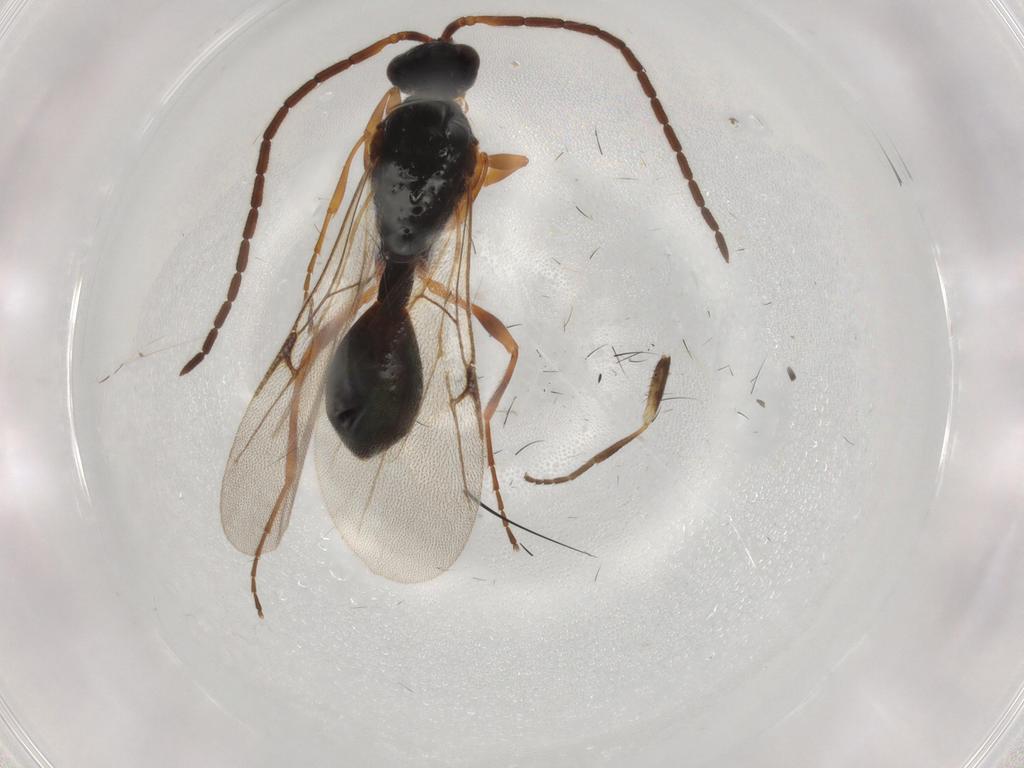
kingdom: Animalia
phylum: Arthropoda
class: Insecta
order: Hymenoptera
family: Diapriidae
